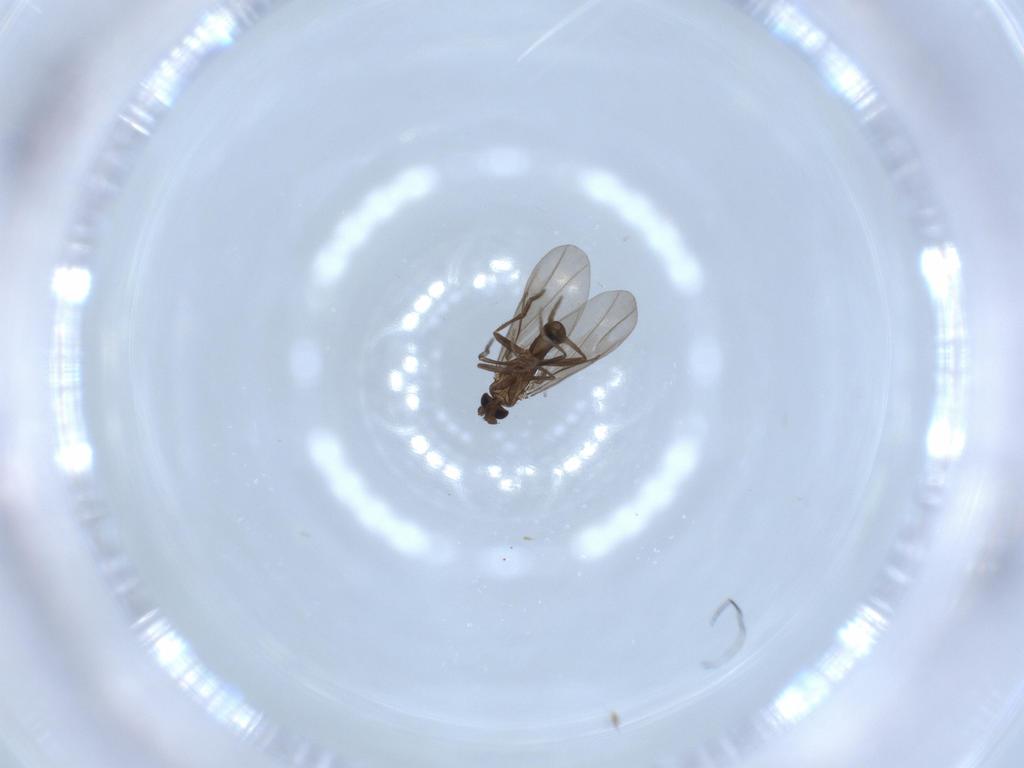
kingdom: Animalia
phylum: Arthropoda
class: Insecta
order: Diptera
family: Phoridae
